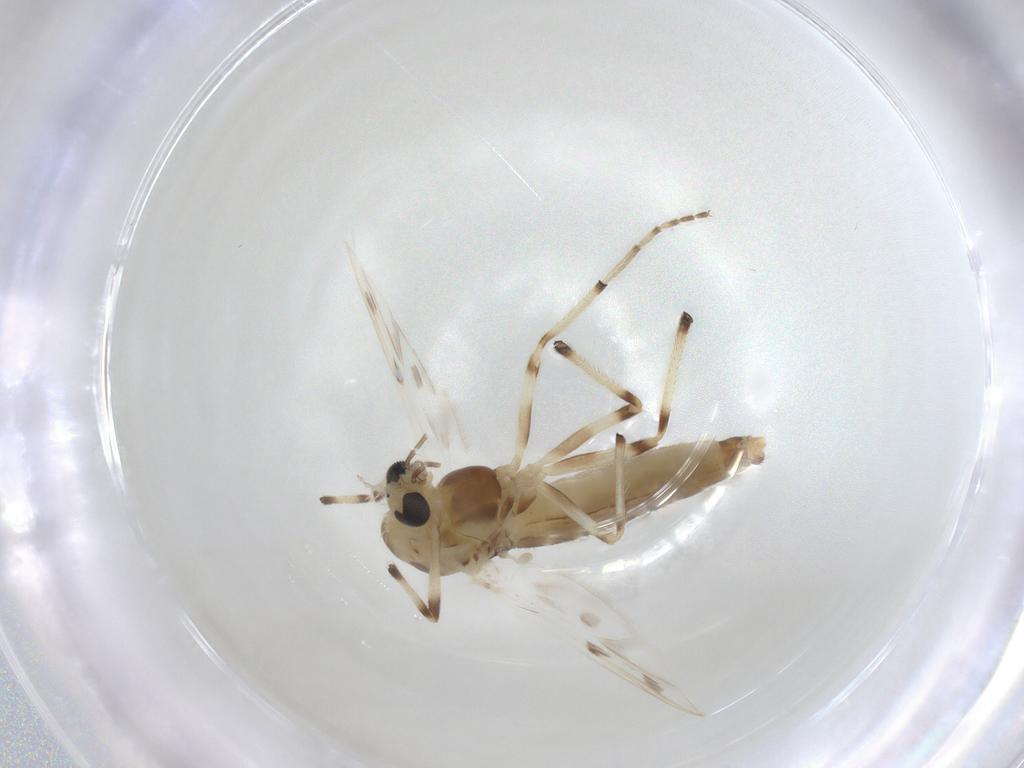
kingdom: Animalia
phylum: Arthropoda
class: Insecta
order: Diptera
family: Chironomidae
